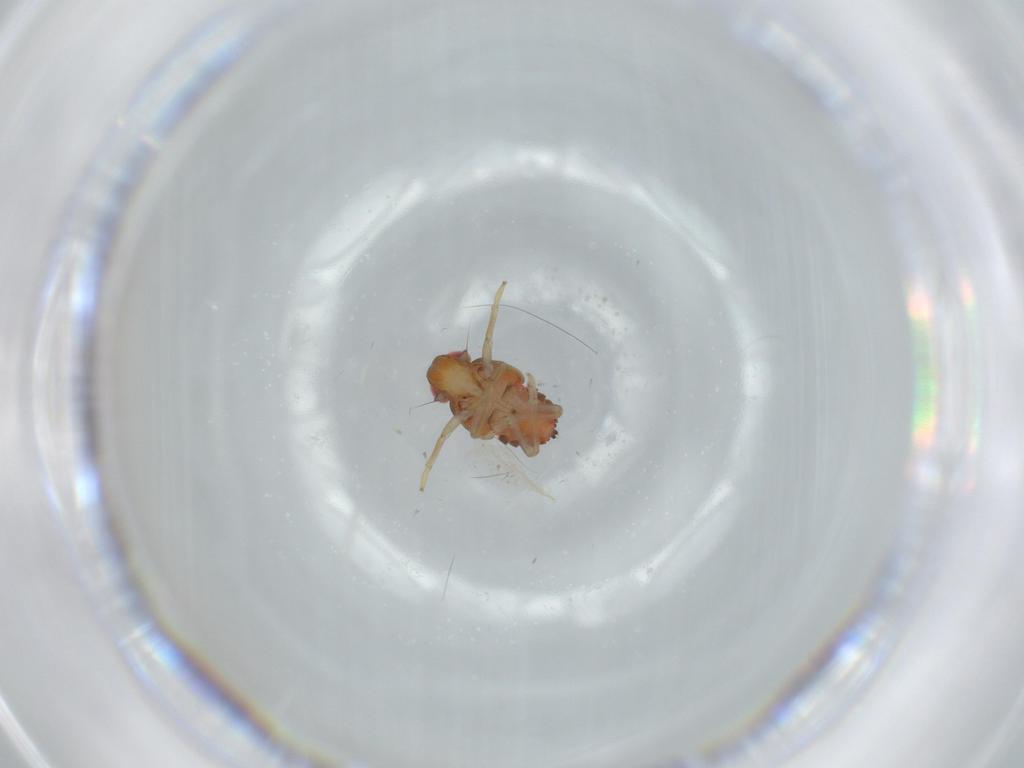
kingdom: Animalia
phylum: Arthropoda
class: Insecta
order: Hemiptera
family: Issidae
